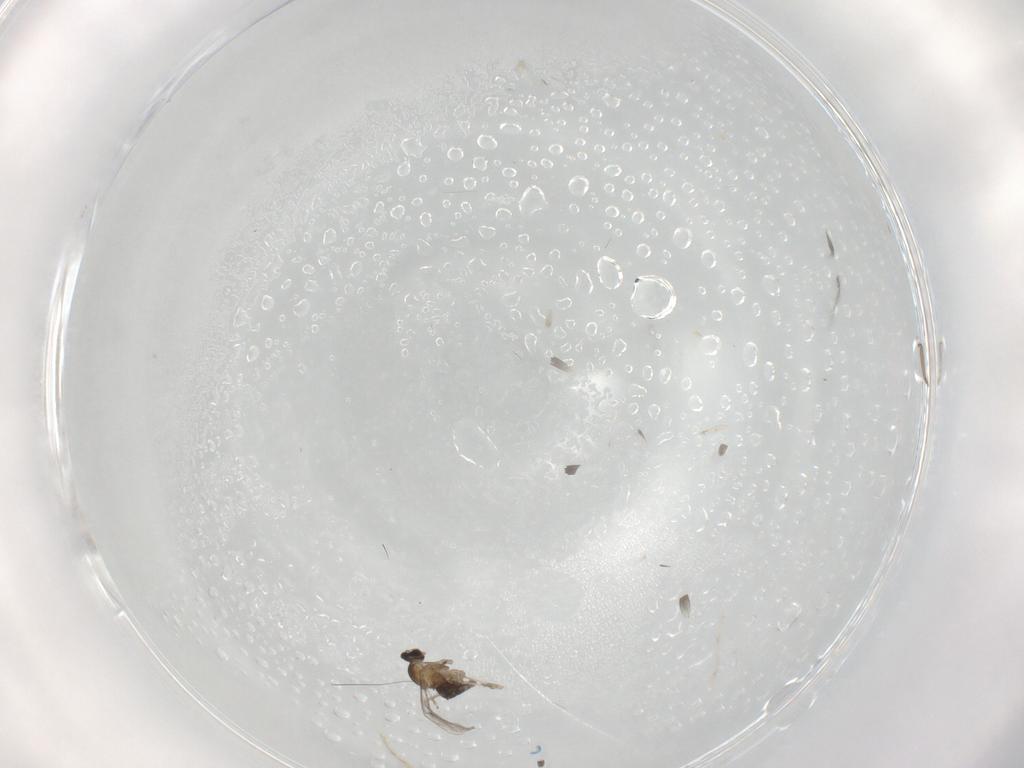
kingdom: Animalia
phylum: Arthropoda
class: Insecta
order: Diptera
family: Cecidomyiidae
